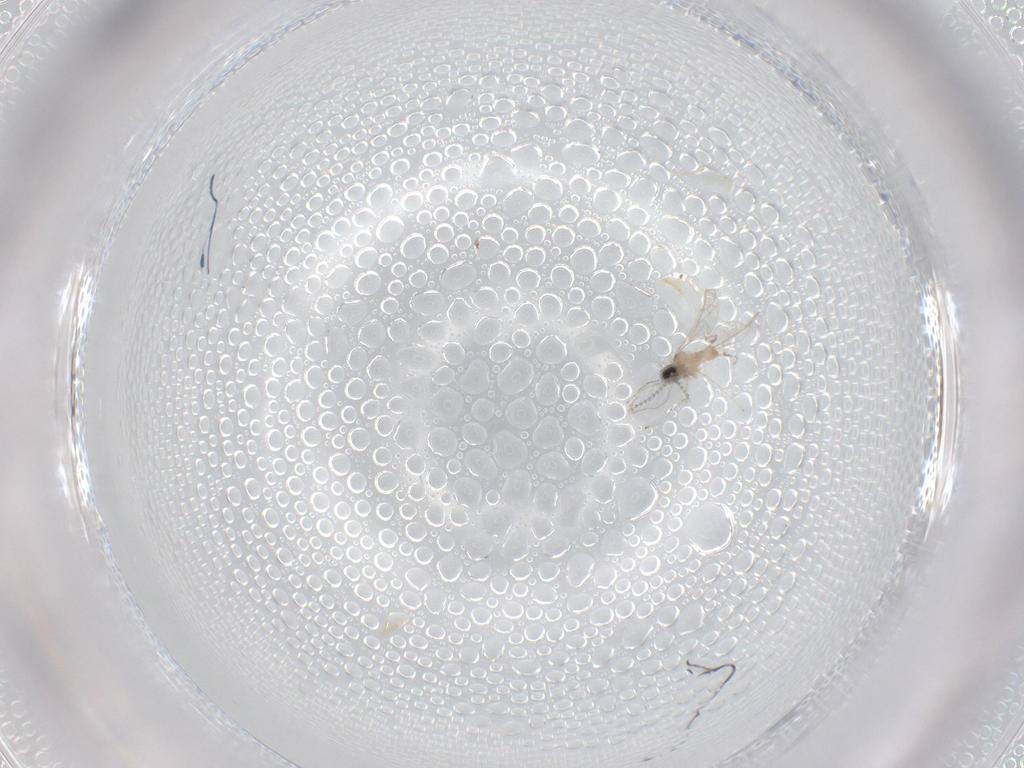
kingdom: Animalia
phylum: Arthropoda
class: Insecta
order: Diptera
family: Cecidomyiidae
